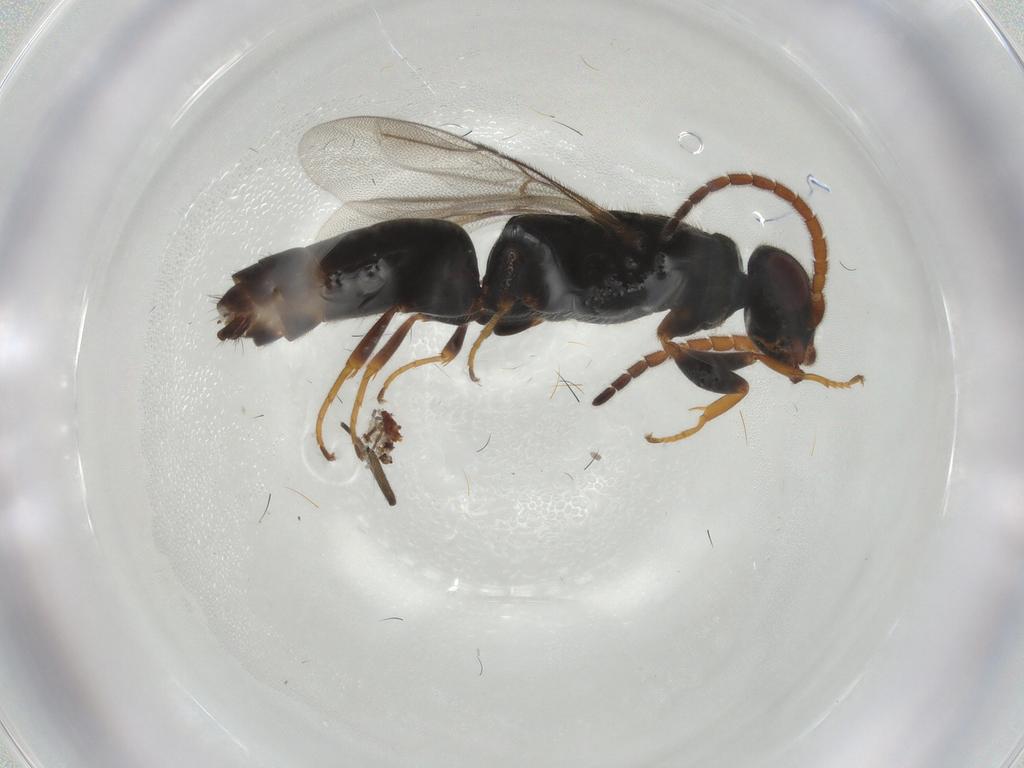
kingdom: Animalia
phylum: Arthropoda
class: Insecta
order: Hymenoptera
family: Bethylidae
